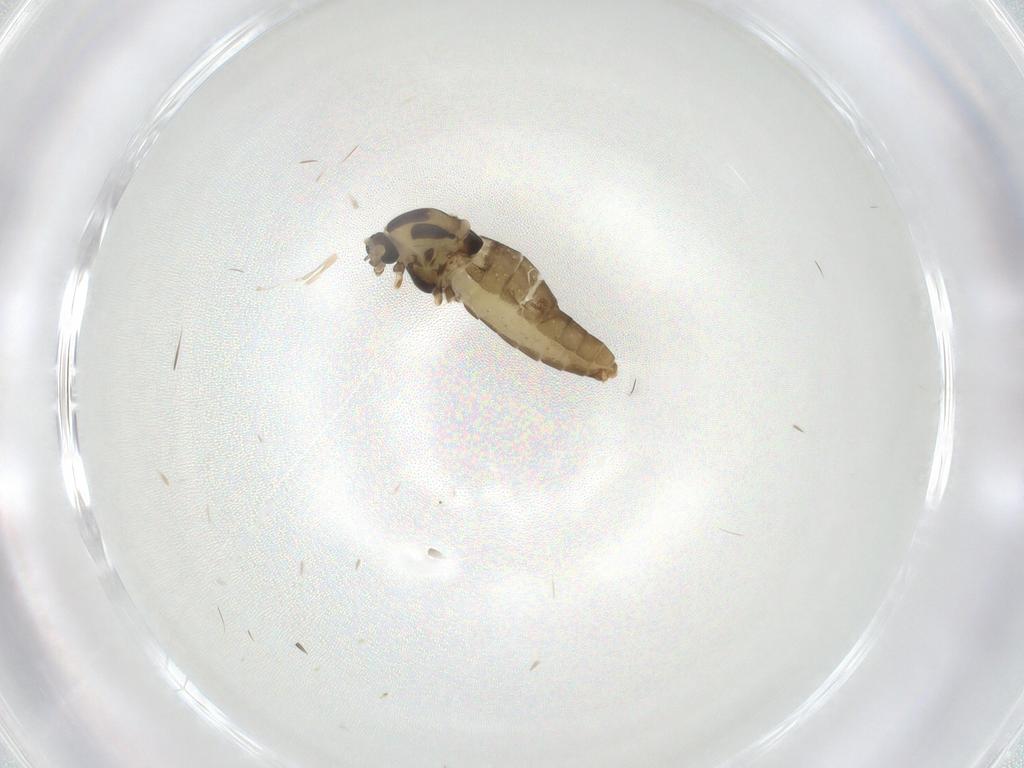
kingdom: Animalia
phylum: Arthropoda
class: Insecta
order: Diptera
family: Chironomidae
